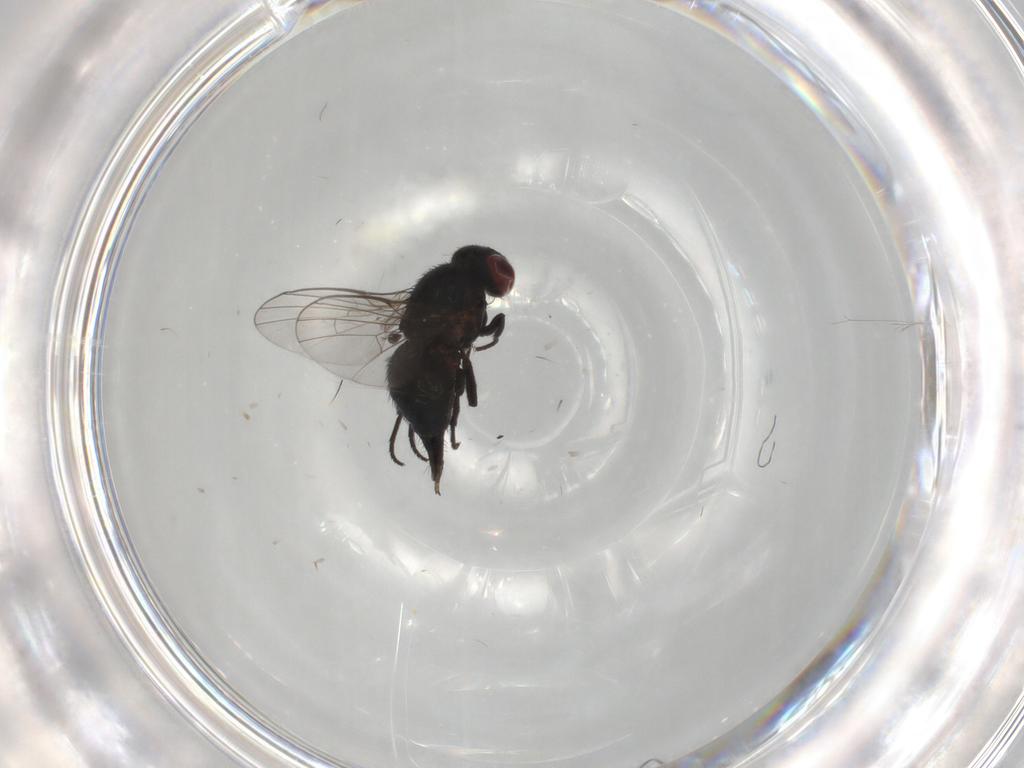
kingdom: Animalia
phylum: Arthropoda
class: Insecta
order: Diptera
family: Agromyzidae
